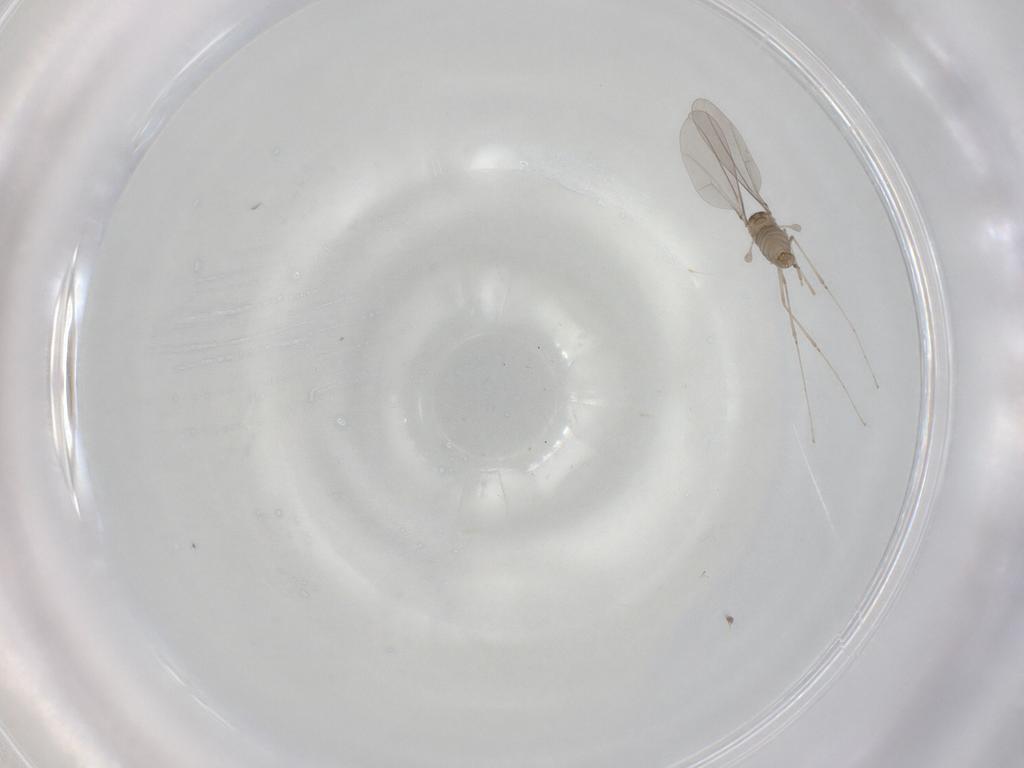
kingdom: Animalia
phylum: Arthropoda
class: Insecta
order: Diptera
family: Cecidomyiidae
